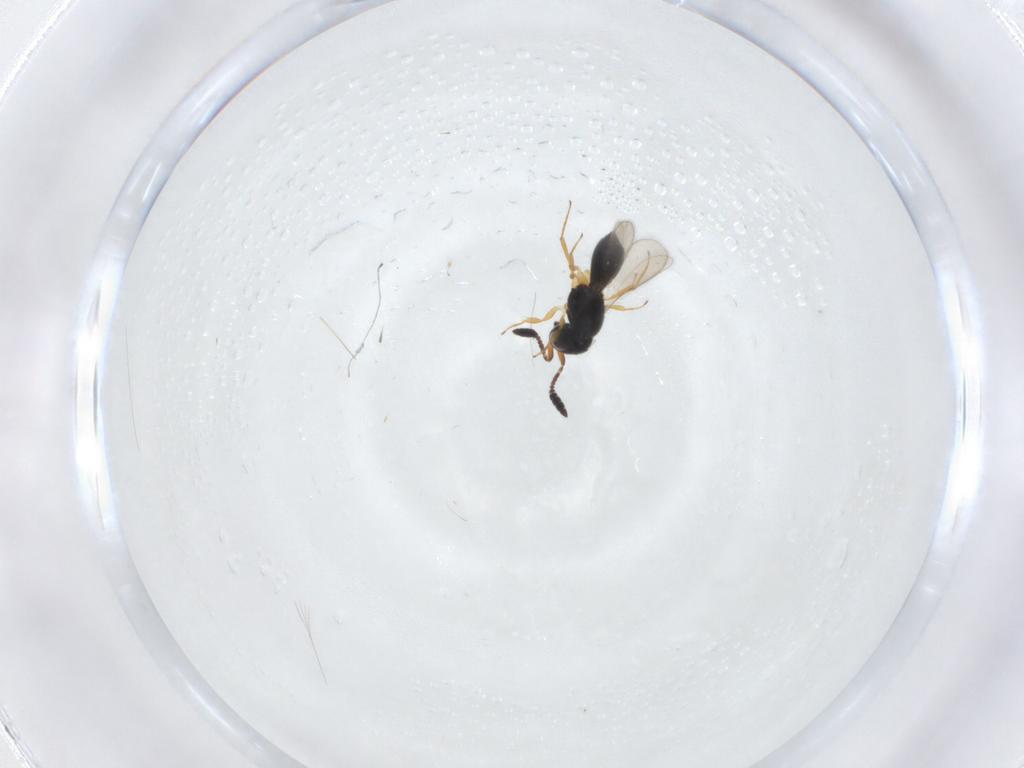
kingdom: Animalia
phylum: Arthropoda
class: Insecta
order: Hymenoptera
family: Scelionidae
